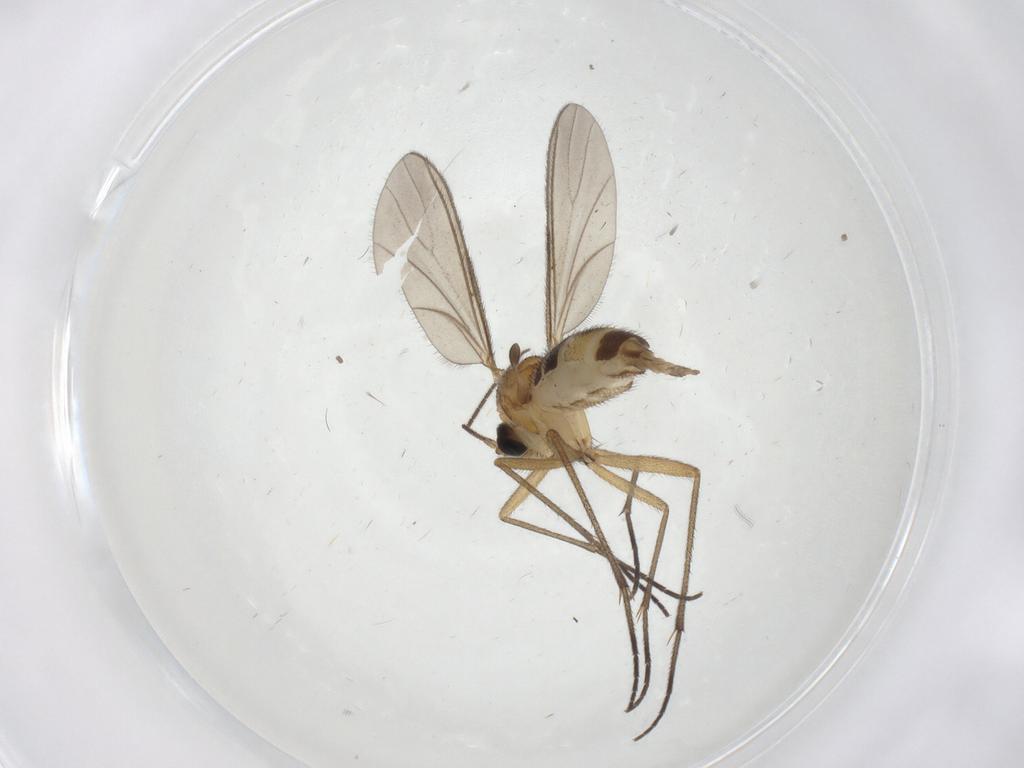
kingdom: Animalia
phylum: Arthropoda
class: Insecta
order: Diptera
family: Sciaridae
